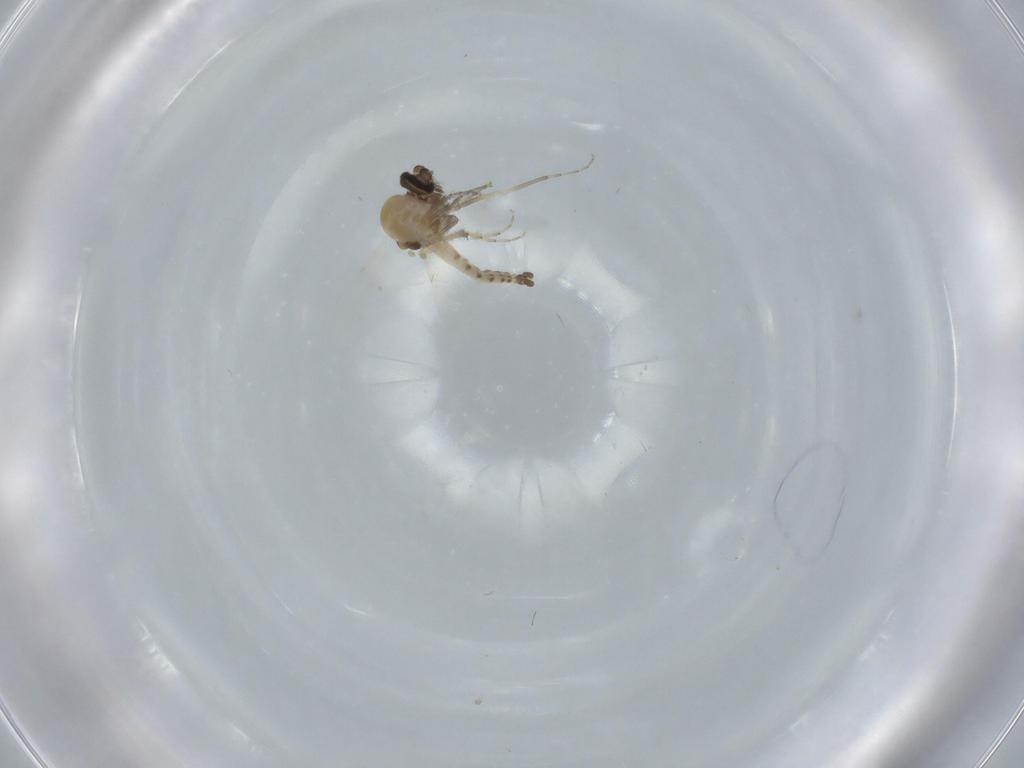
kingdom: Animalia
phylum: Arthropoda
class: Insecta
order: Diptera
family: Ceratopogonidae
